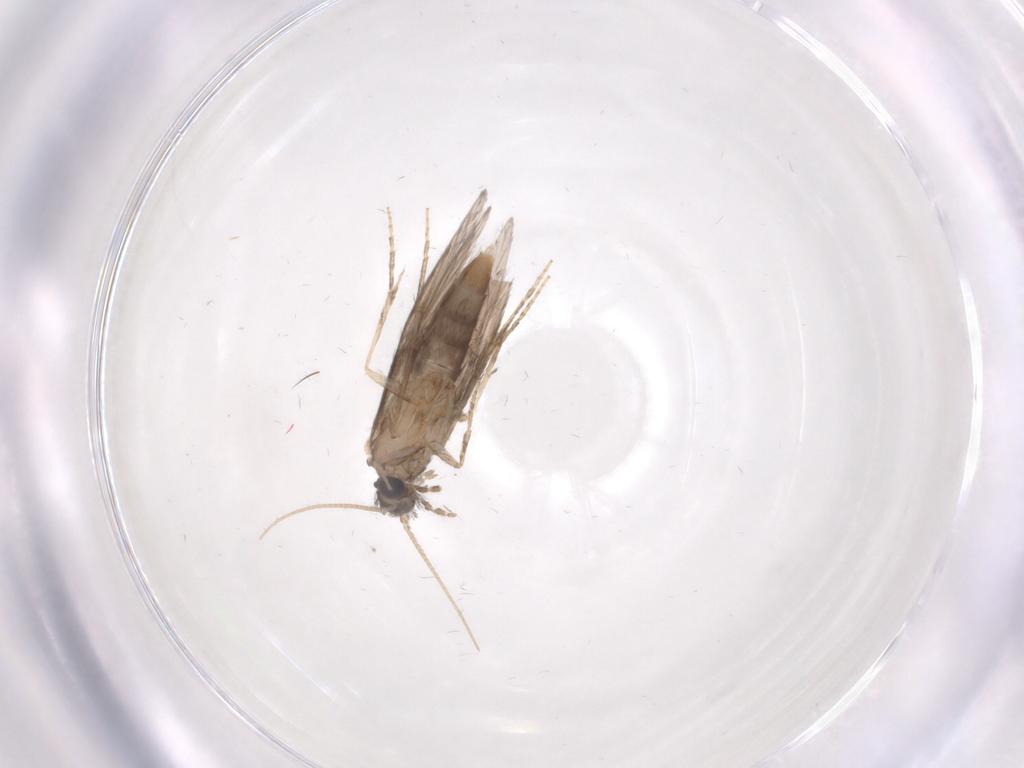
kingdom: Animalia
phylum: Arthropoda
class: Insecta
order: Trichoptera
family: Hydroptilidae
